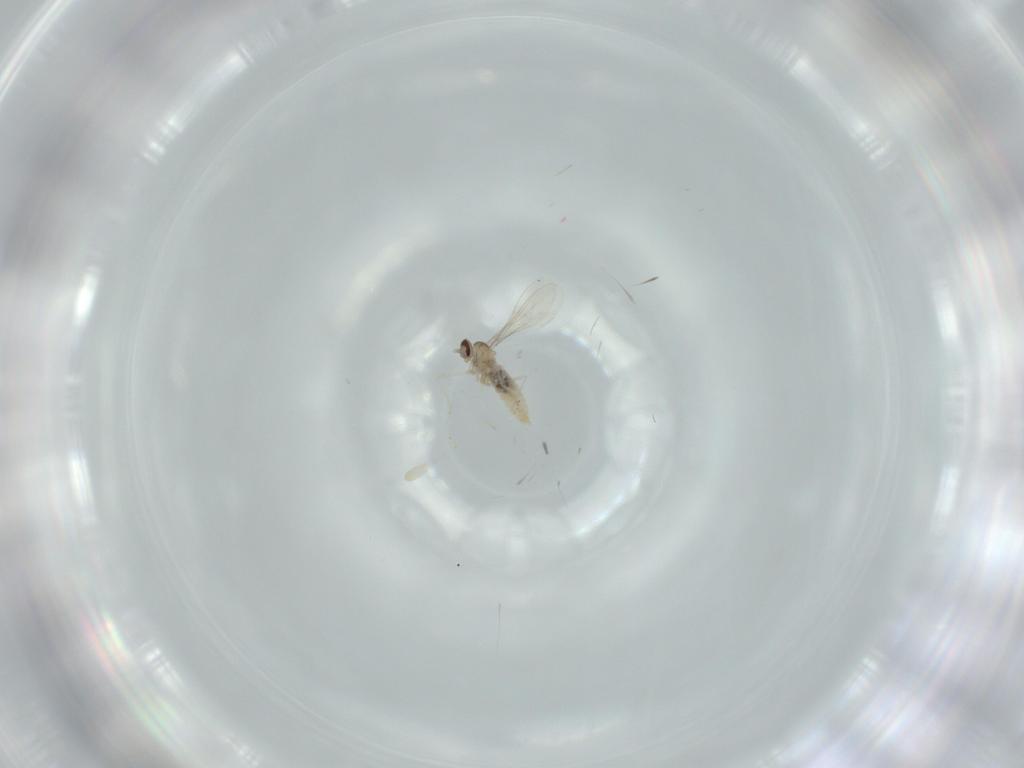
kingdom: Animalia
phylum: Arthropoda
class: Insecta
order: Diptera
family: Cecidomyiidae
